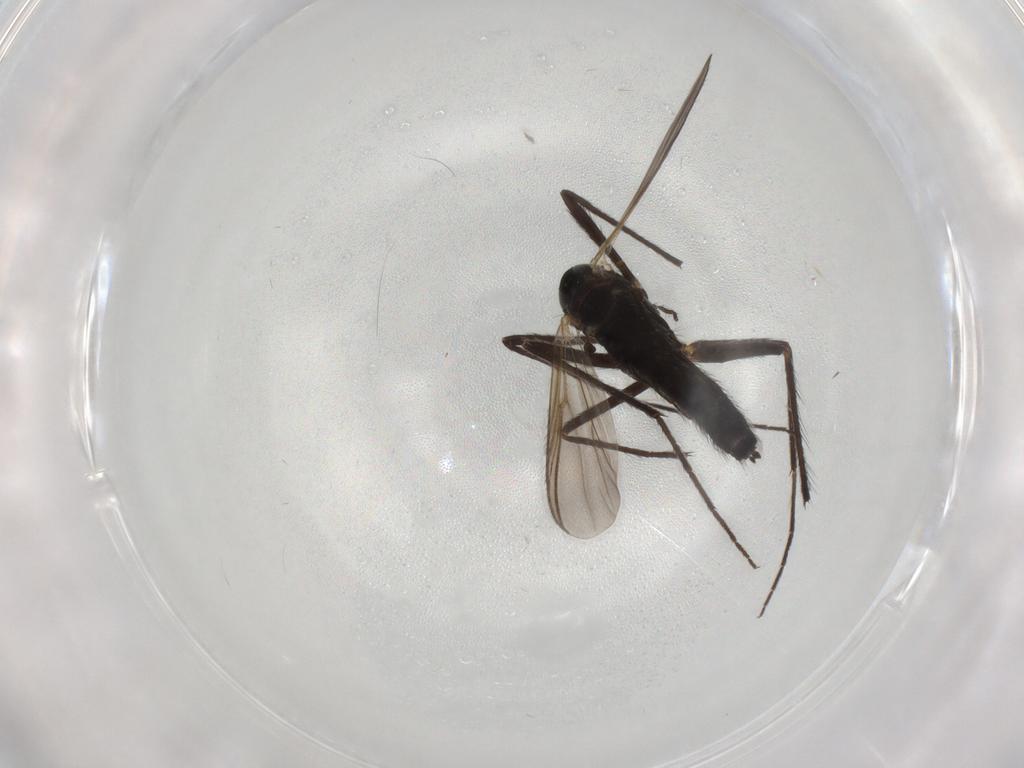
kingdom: Animalia
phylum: Arthropoda
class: Insecta
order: Diptera
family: Chironomidae
